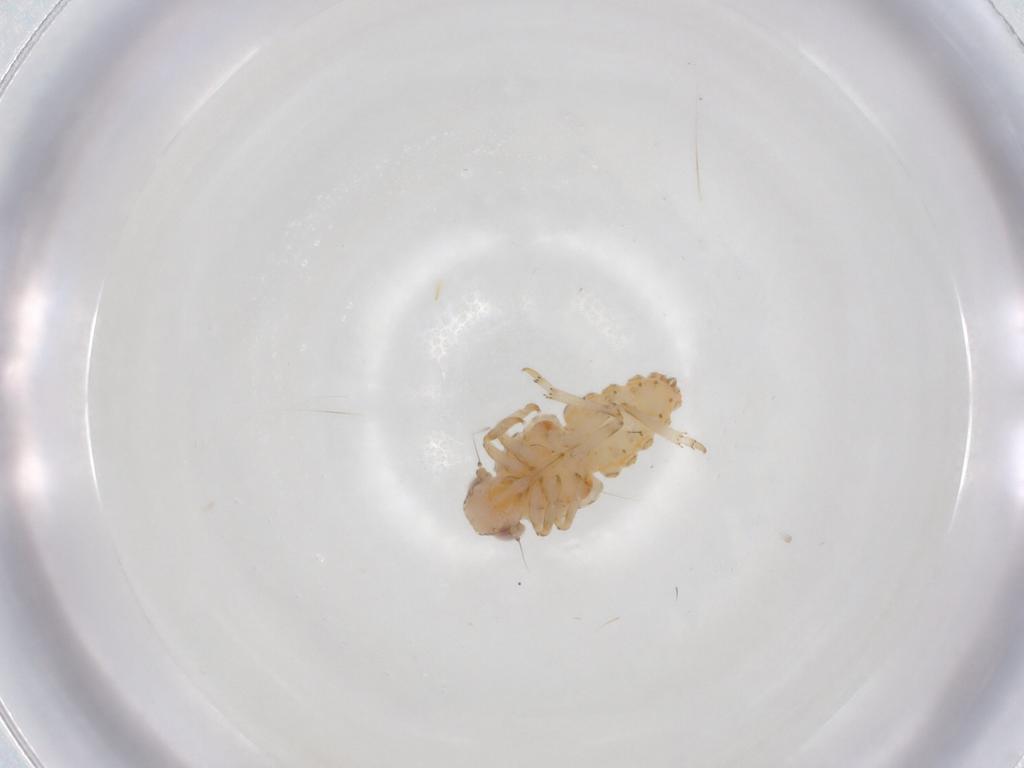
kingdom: Animalia
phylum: Arthropoda
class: Insecta
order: Hemiptera
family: Issidae
